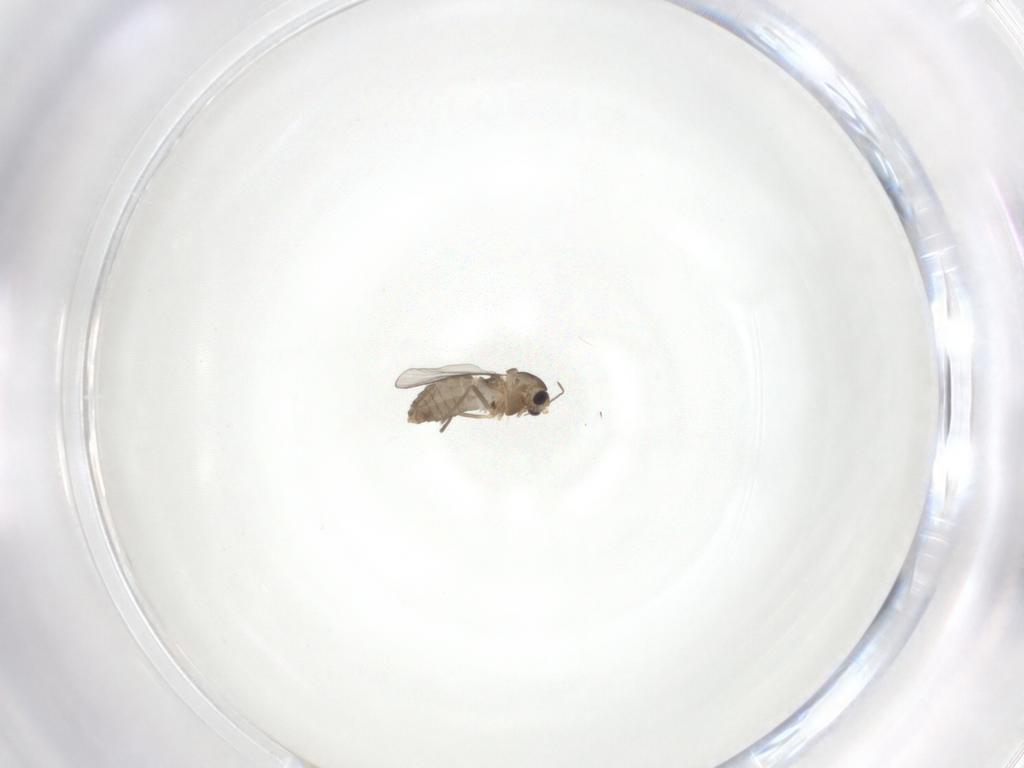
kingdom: Animalia
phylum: Arthropoda
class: Insecta
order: Diptera
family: Chironomidae
